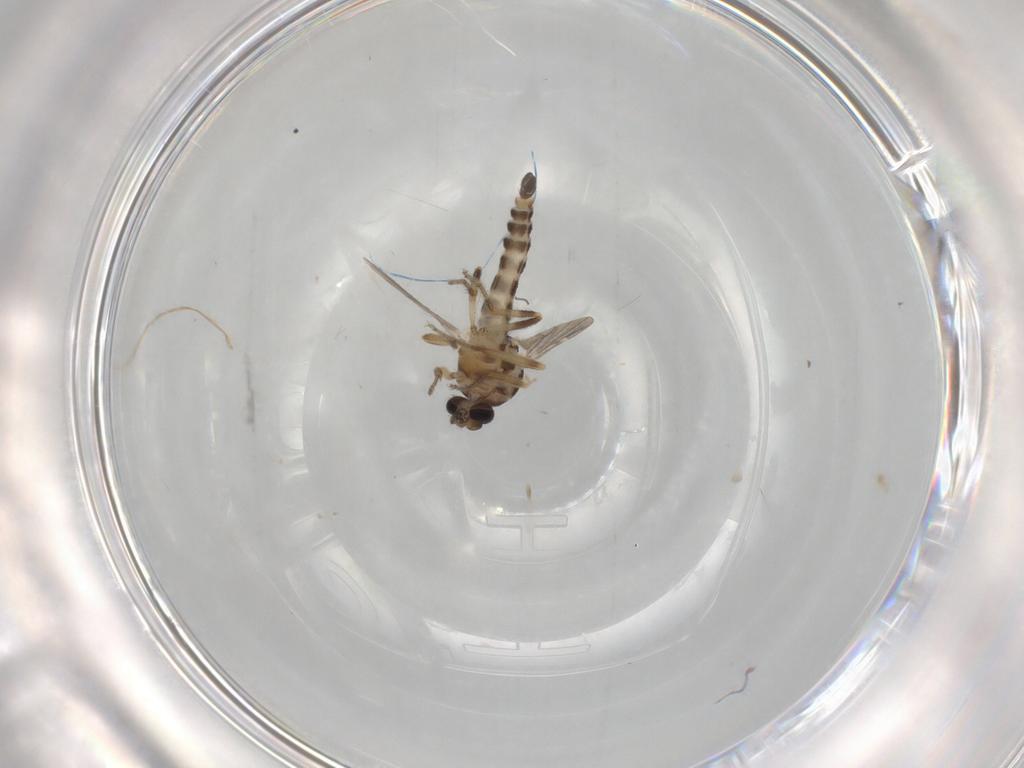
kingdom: Animalia
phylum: Arthropoda
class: Insecta
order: Diptera
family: Ceratopogonidae
